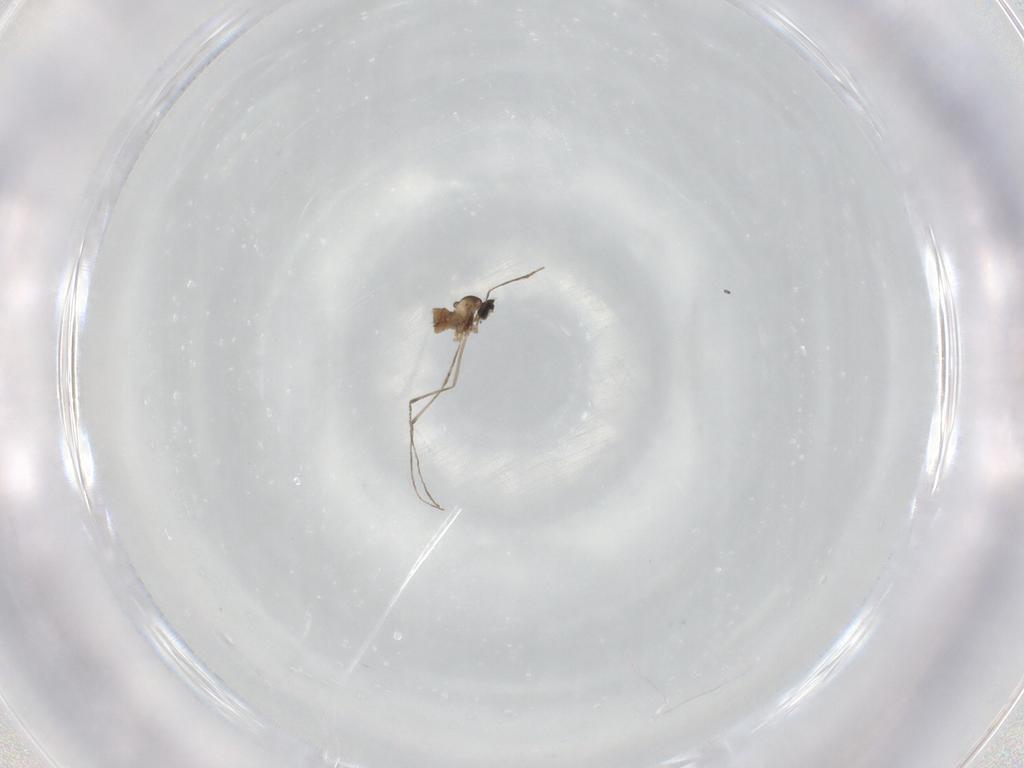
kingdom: Animalia
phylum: Arthropoda
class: Insecta
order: Diptera
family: Cecidomyiidae
